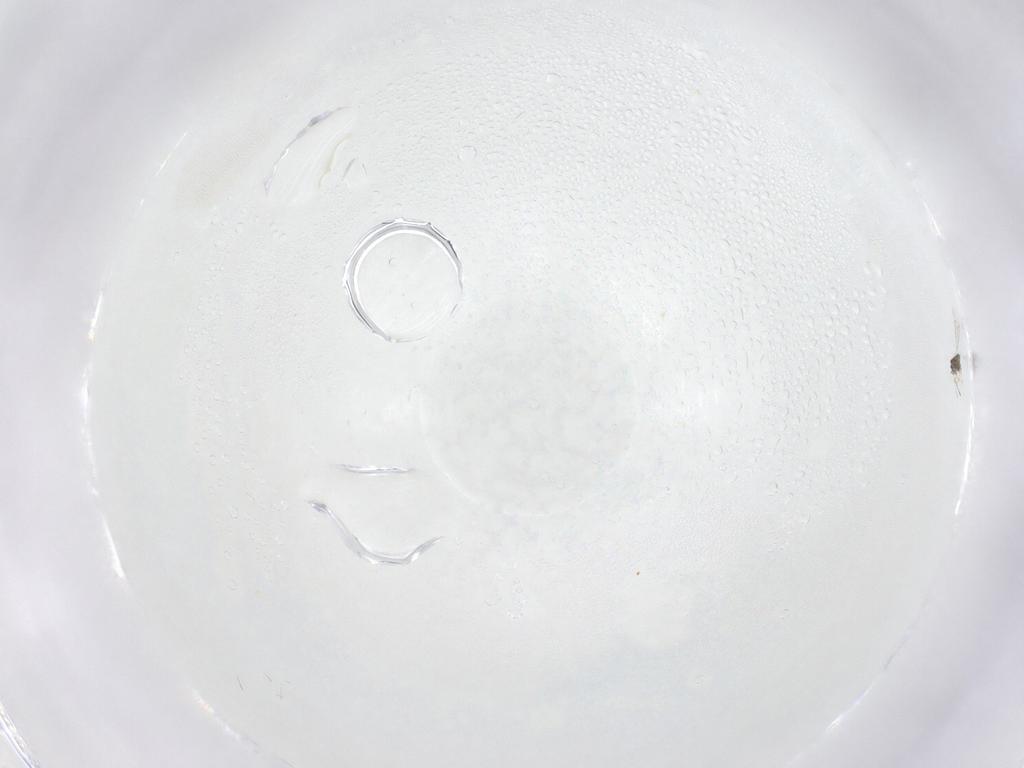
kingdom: Animalia
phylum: Arthropoda
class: Insecta
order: Orthoptera
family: Gryllidae
